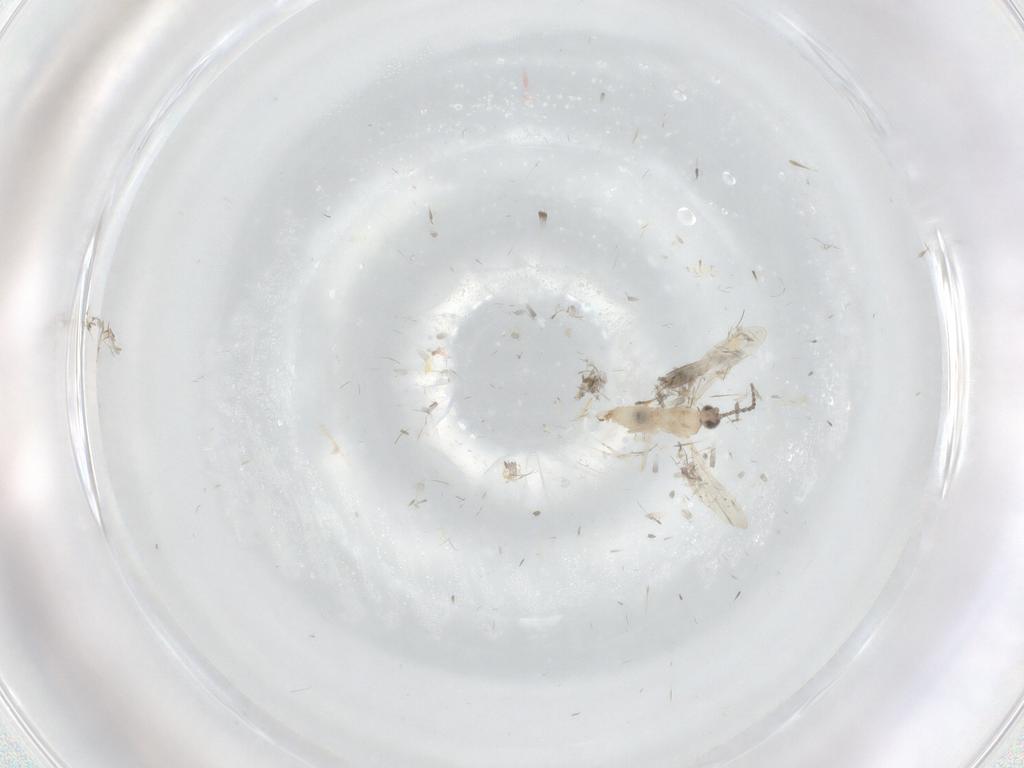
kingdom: Animalia
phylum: Arthropoda
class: Insecta
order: Diptera
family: Cecidomyiidae
